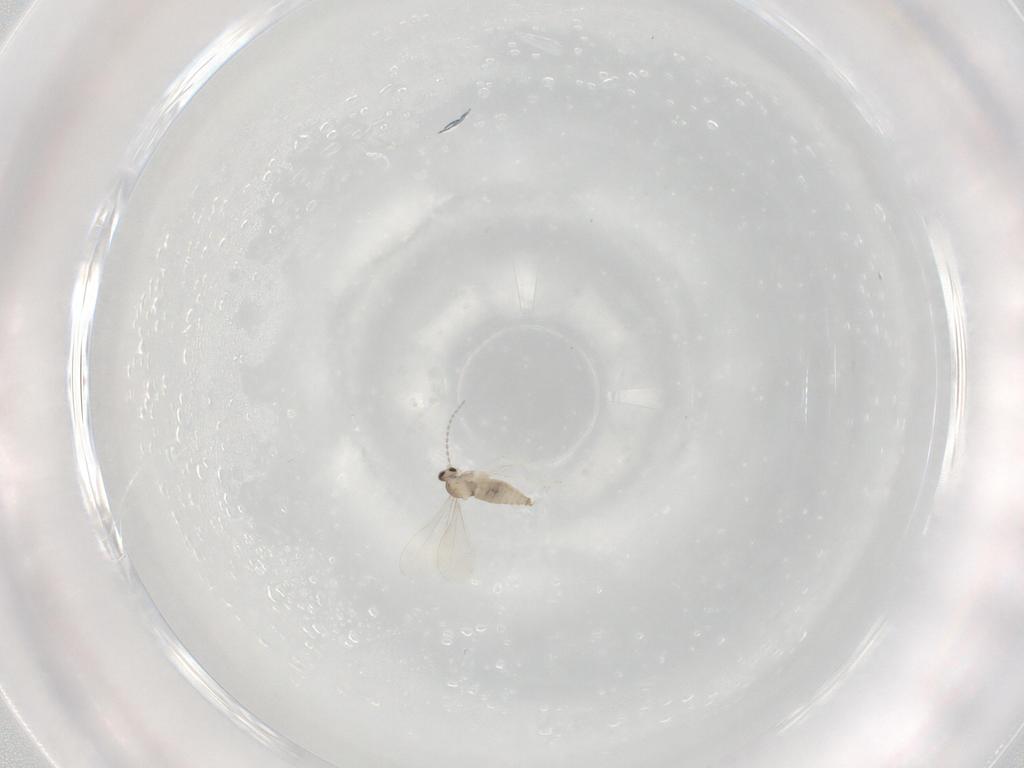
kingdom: Animalia
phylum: Arthropoda
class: Insecta
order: Diptera
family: Cecidomyiidae
